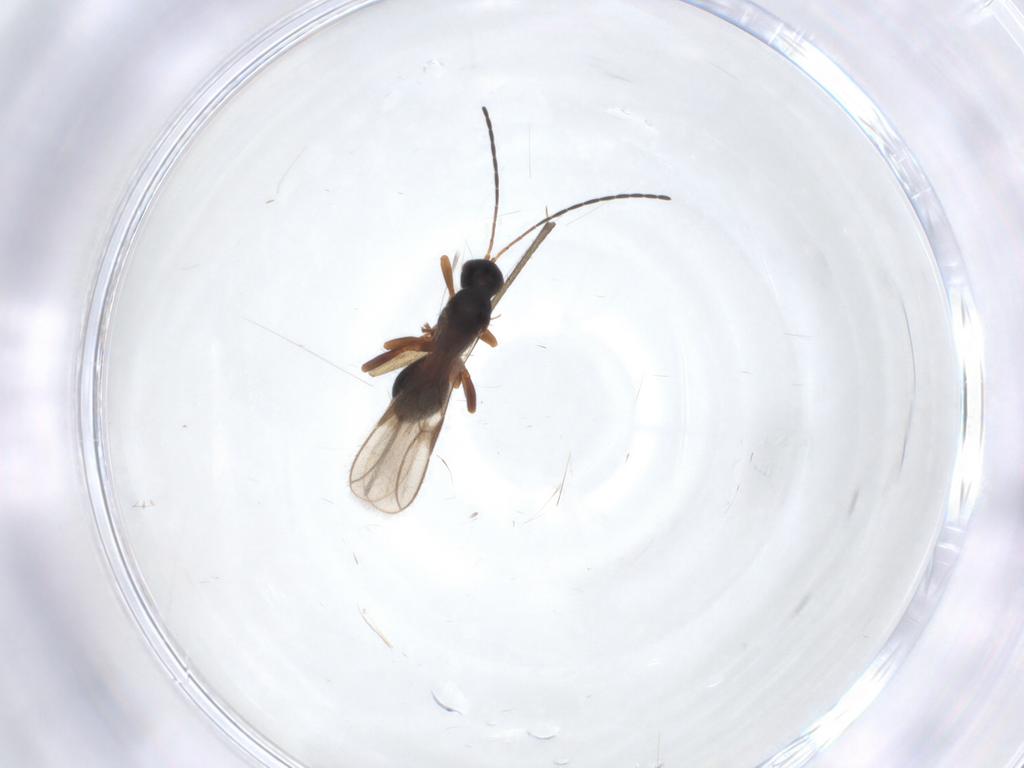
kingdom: Animalia
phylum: Arthropoda
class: Insecta
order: Hymenoptera
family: Braconidae
